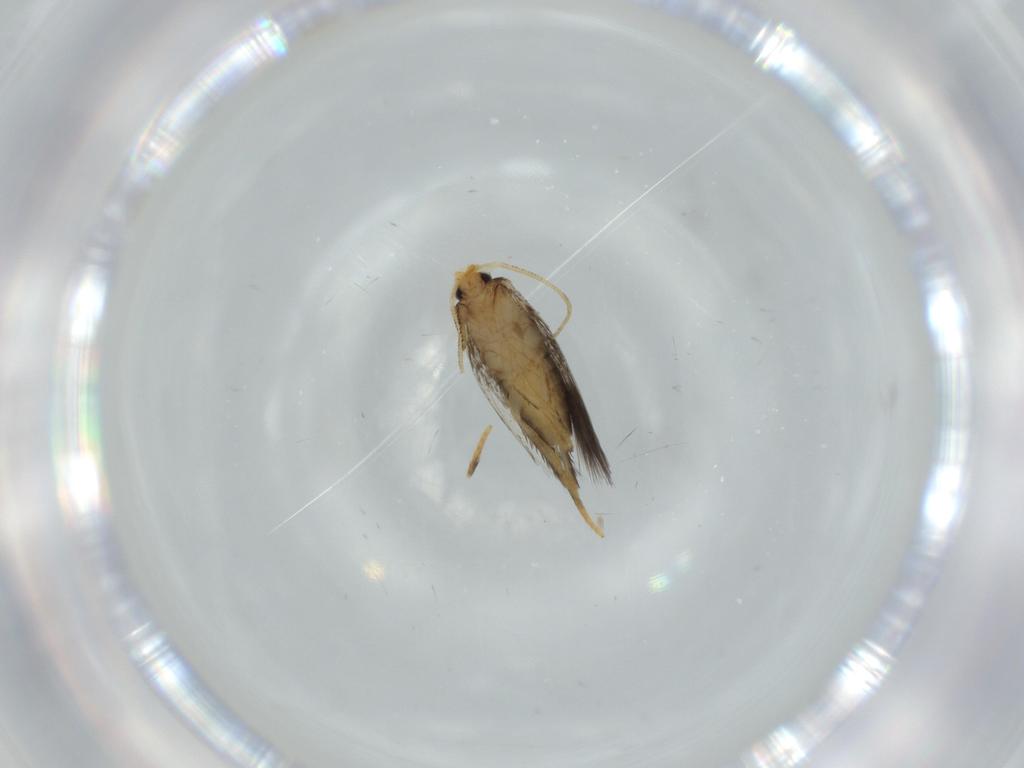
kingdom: Animalia
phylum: Arthropoda
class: Insecta
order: Lepidoptera
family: Nepticulidae
